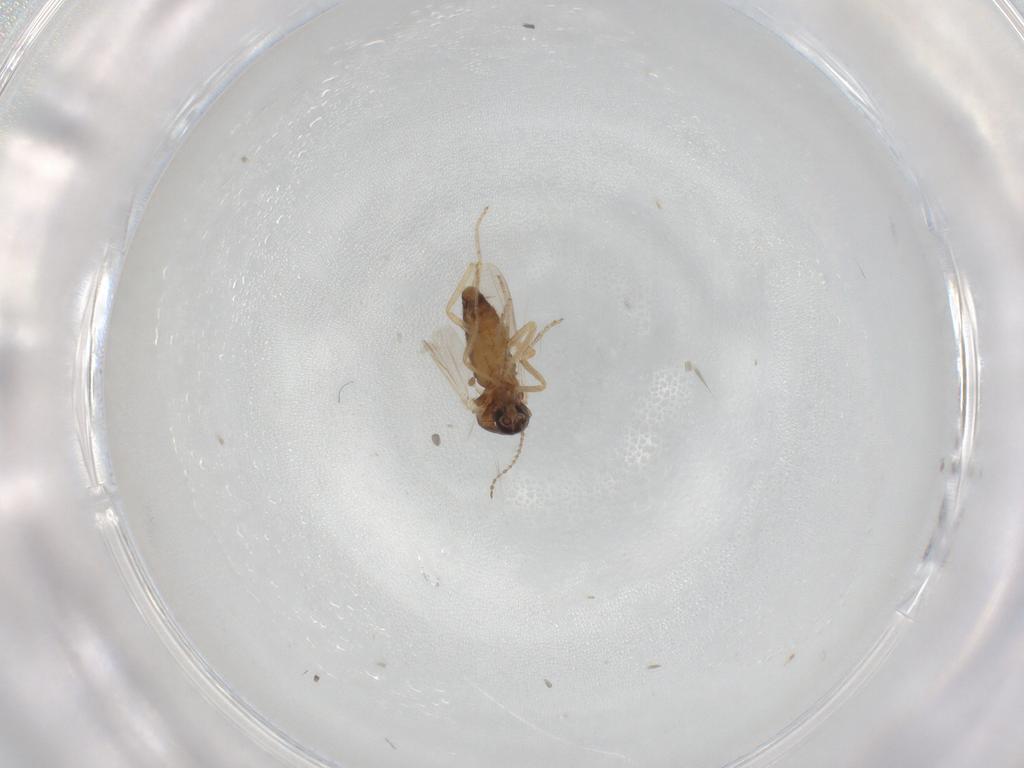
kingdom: Animalia
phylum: Arthropoda
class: Insecta
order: Diptera
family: Ceratopogonidae
